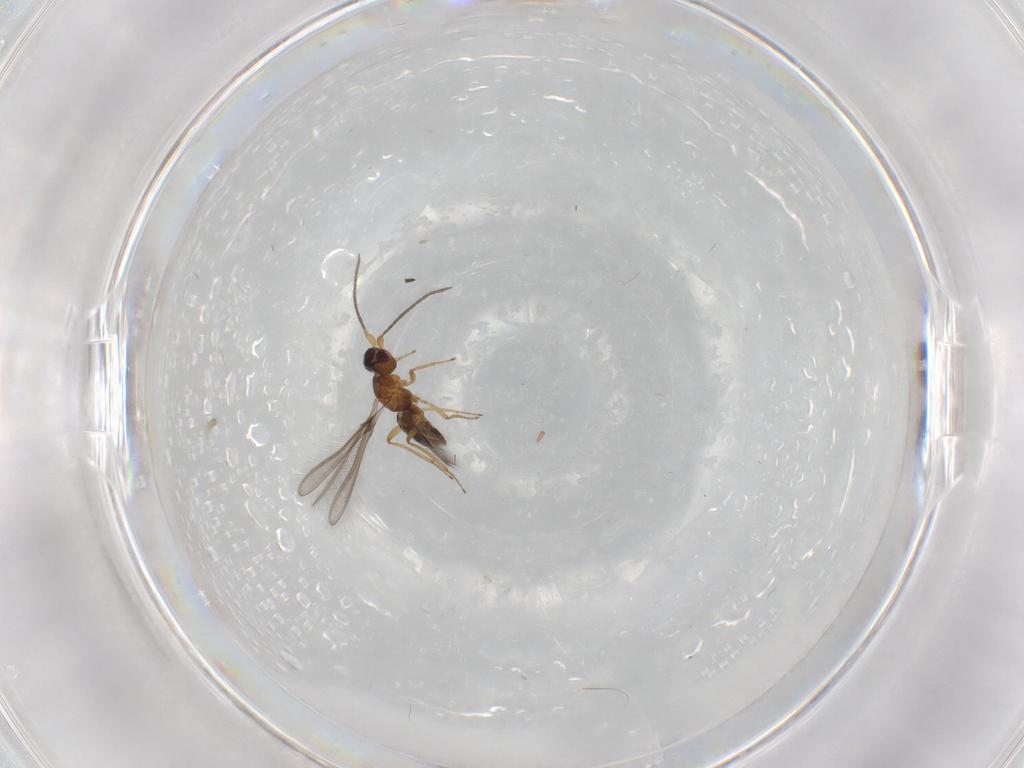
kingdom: Animalia
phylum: Arthropoda
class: Insecta
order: Hymenoptera
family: Mymaridae
